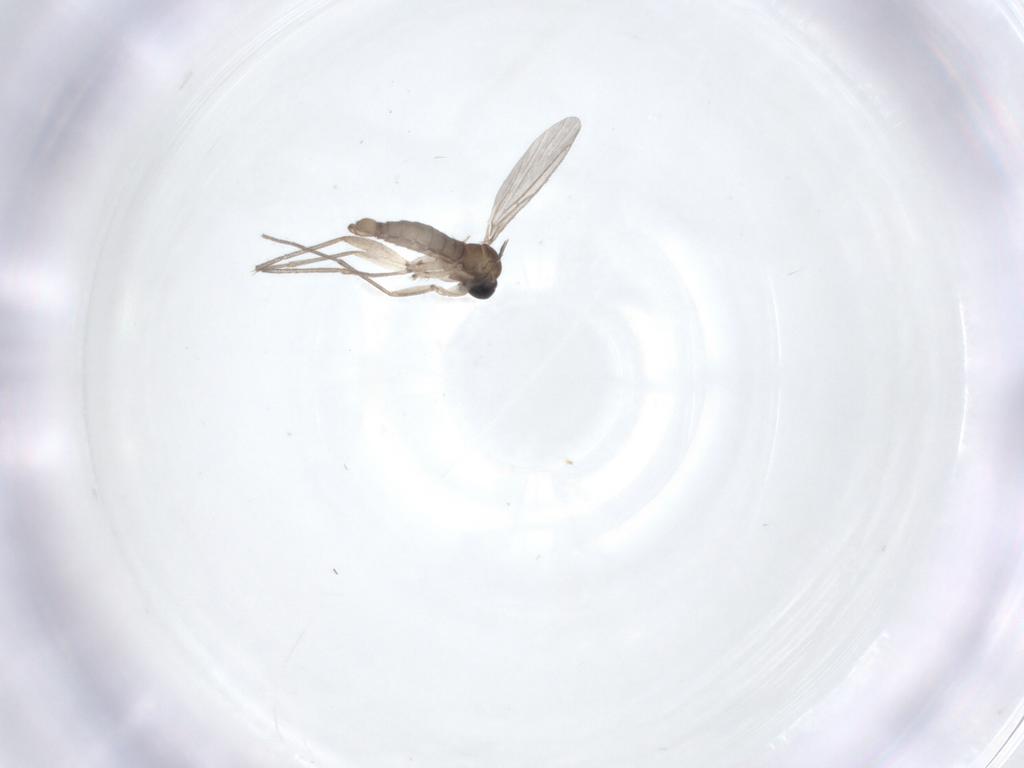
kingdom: Animalia
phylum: Arthropoda
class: Insecta
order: Diptera
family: Sciaridae
